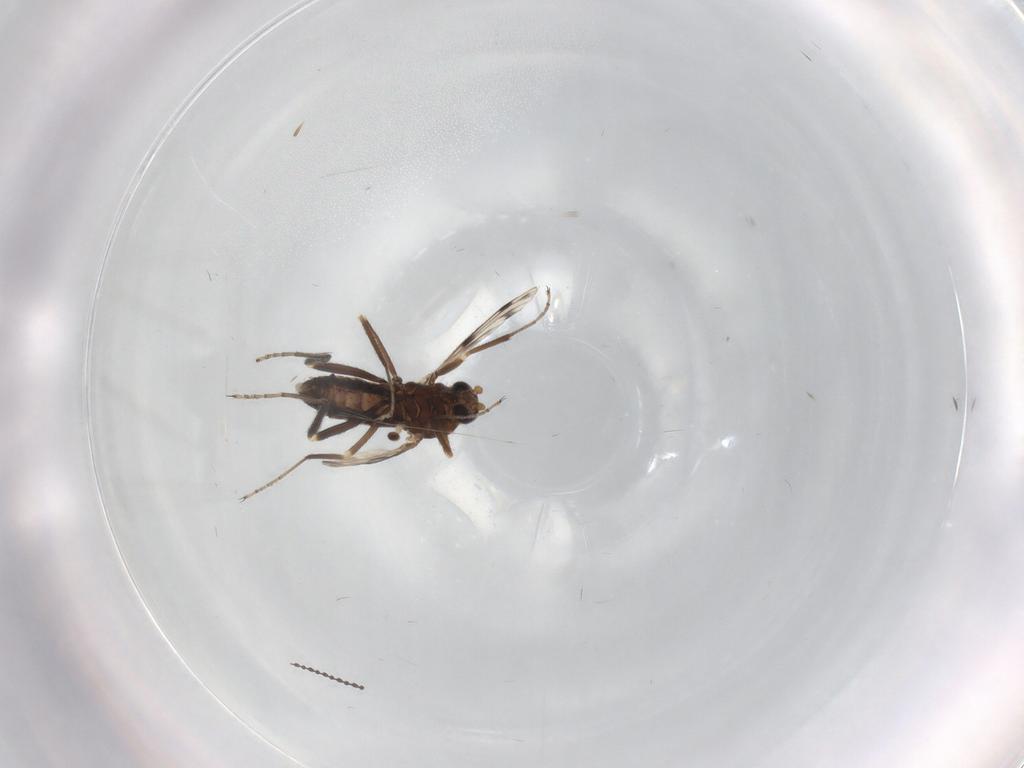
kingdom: Animalia
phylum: Arthropoda
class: Insecta
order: Diptera
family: Ceratopogonidae
